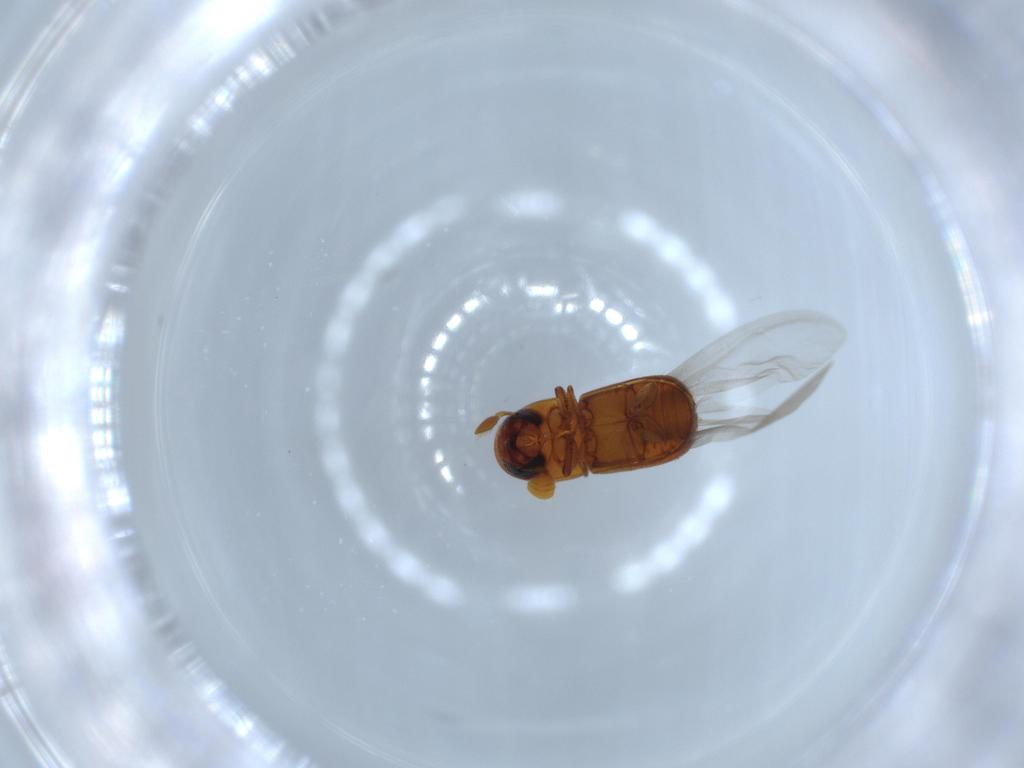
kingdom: Animalia
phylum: Arthropoda
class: Insecta
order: Coleoptera
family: Curculionidae
